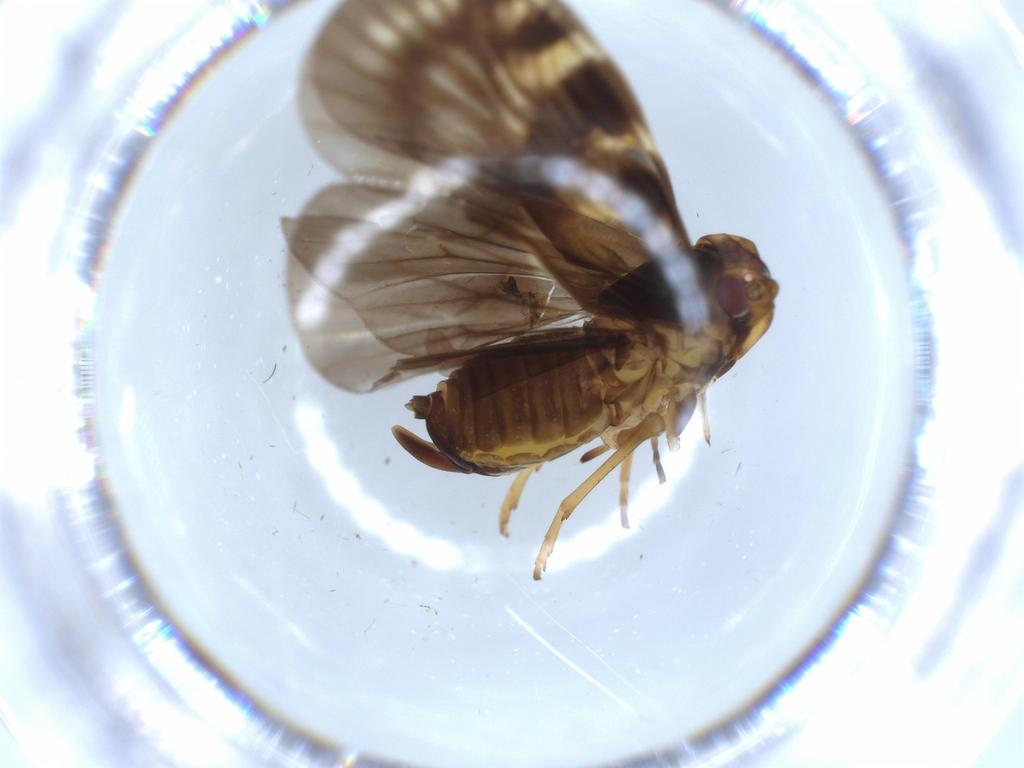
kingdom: Animalia
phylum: Arthropoda
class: Insecta
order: Hemiptera
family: Cixiidae
